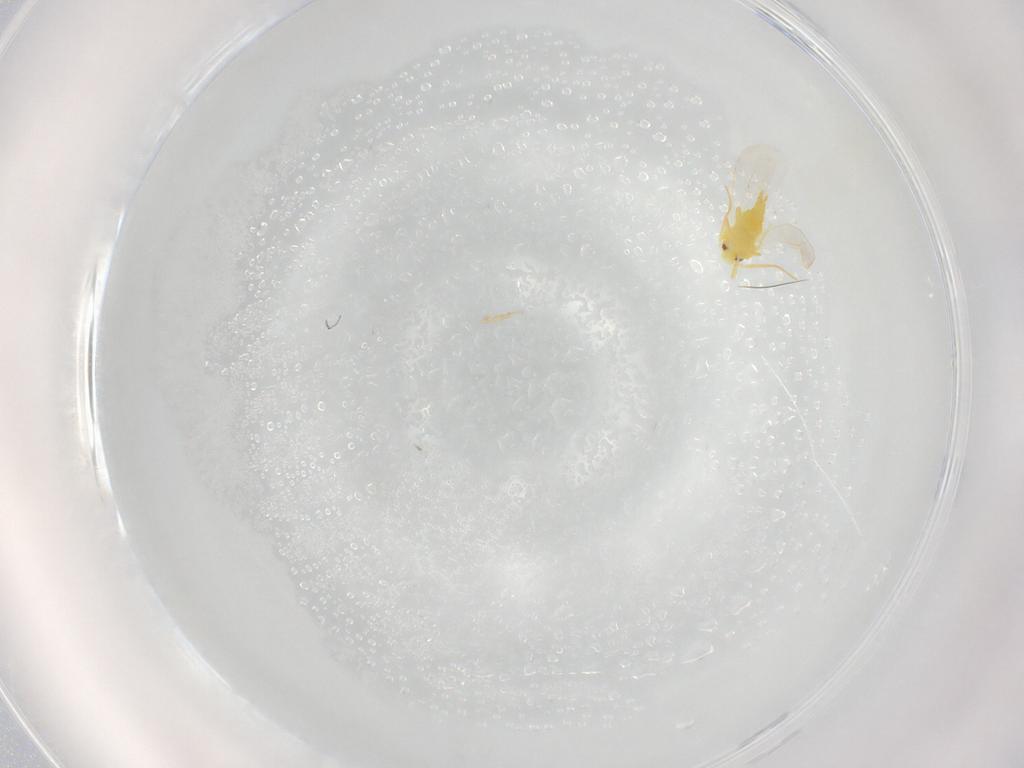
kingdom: Animalia
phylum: Arthropoda
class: Insecta
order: Hemiptera
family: Aleyrodidae
